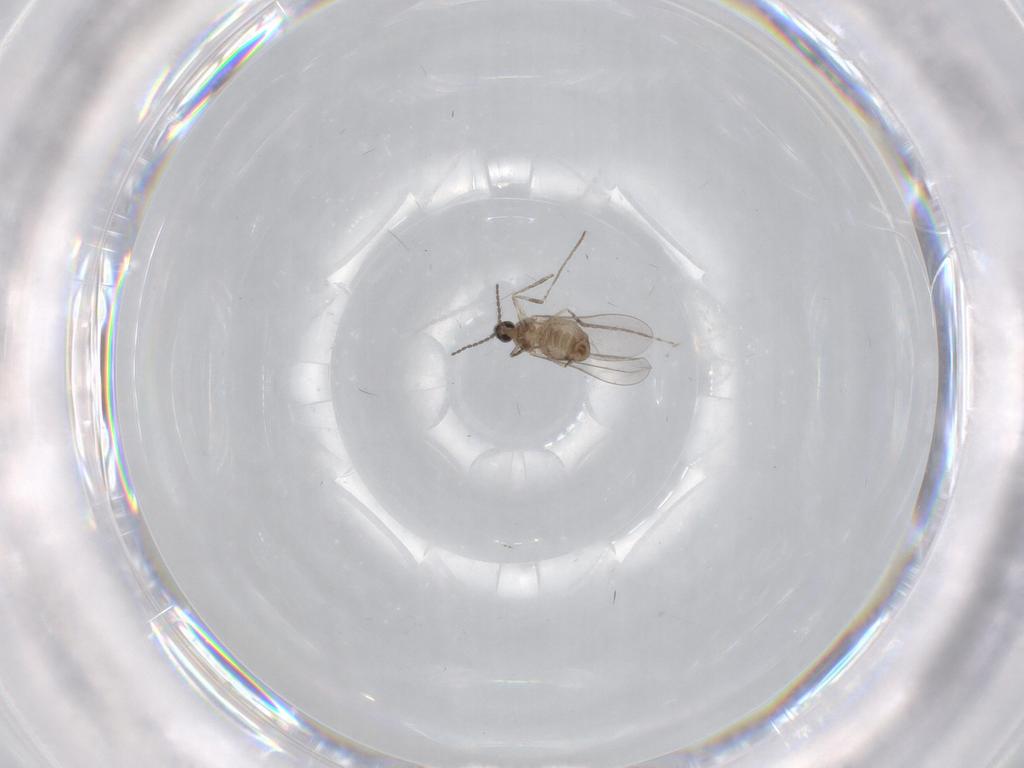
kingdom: Animalia
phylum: Arthropoda
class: Insecta
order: Diptera
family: Cecidomyiidae
